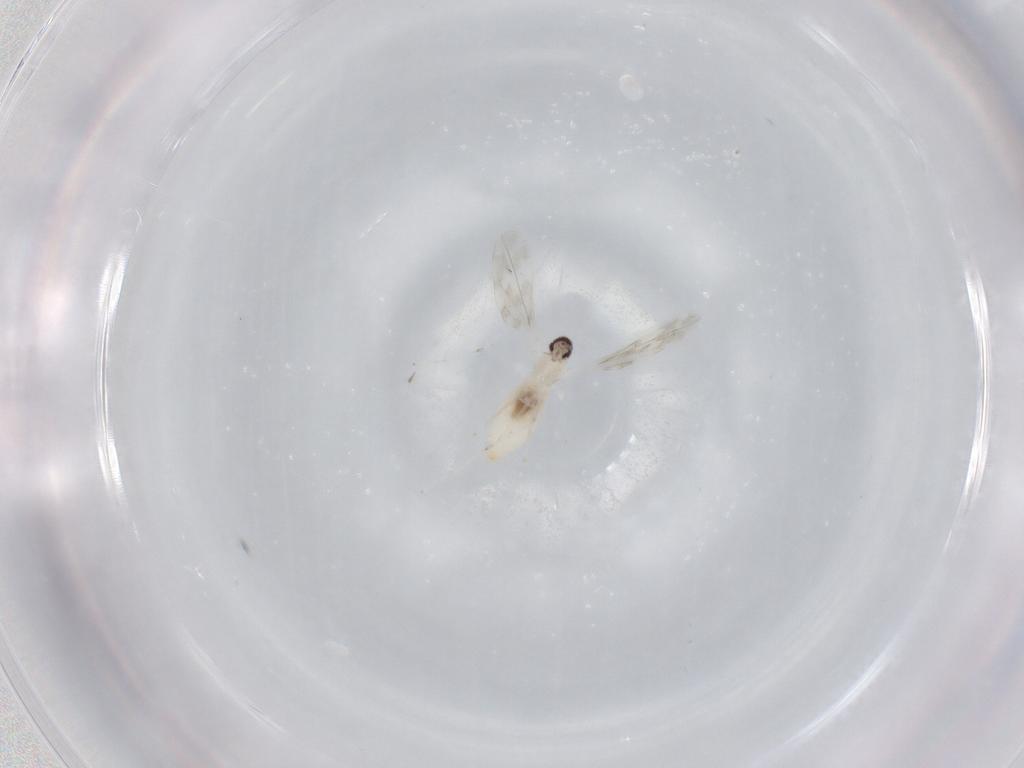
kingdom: Animalia
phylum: Arthropoda
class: Insecta
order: Diptera
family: Cecidomyiidae
